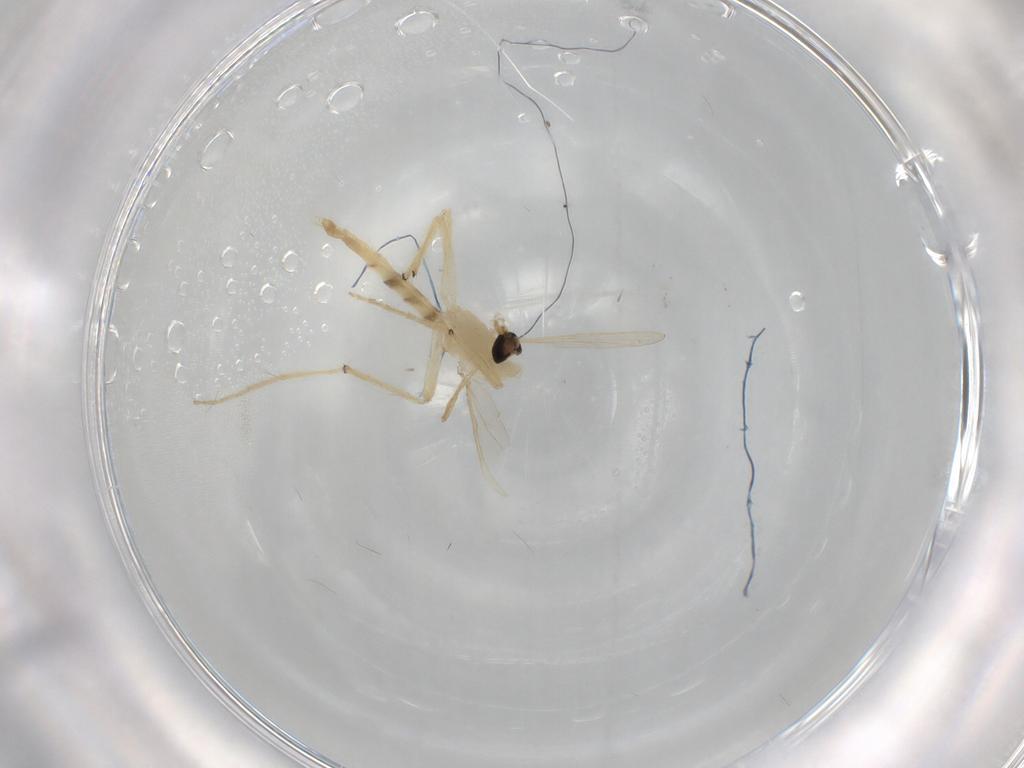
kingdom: Animalia
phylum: Arthropoda
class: Insecta
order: Diptera
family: Chironomidae
